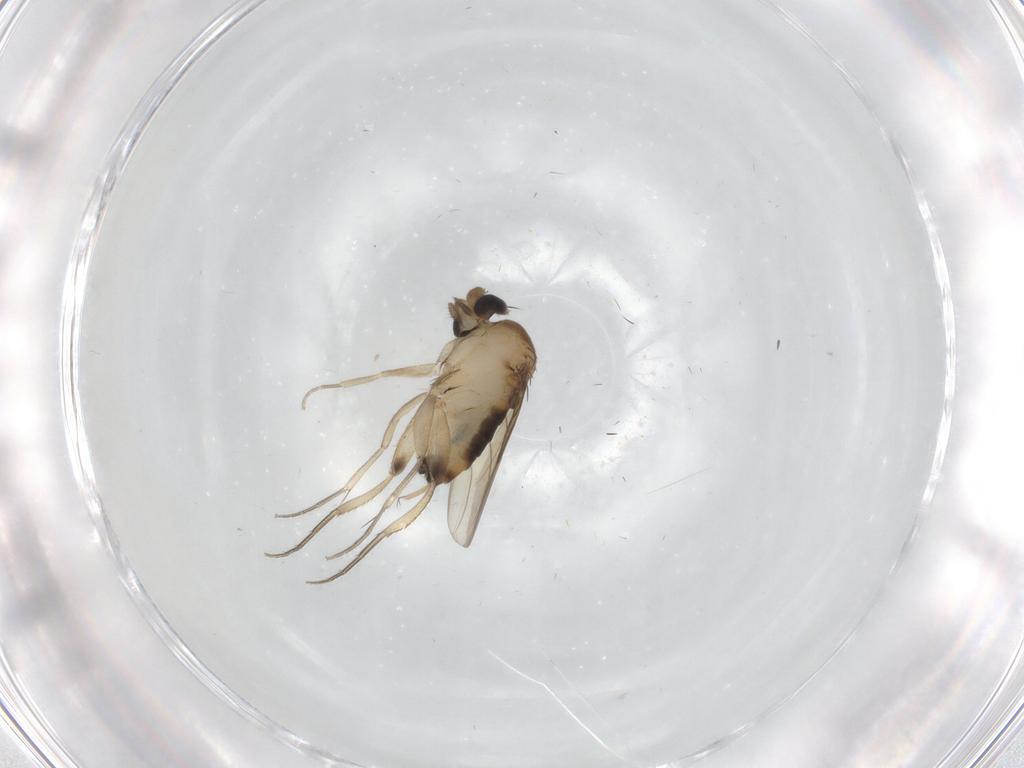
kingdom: Animalia
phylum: Arthropoda
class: Insecta
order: Diptera
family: Phoridae
